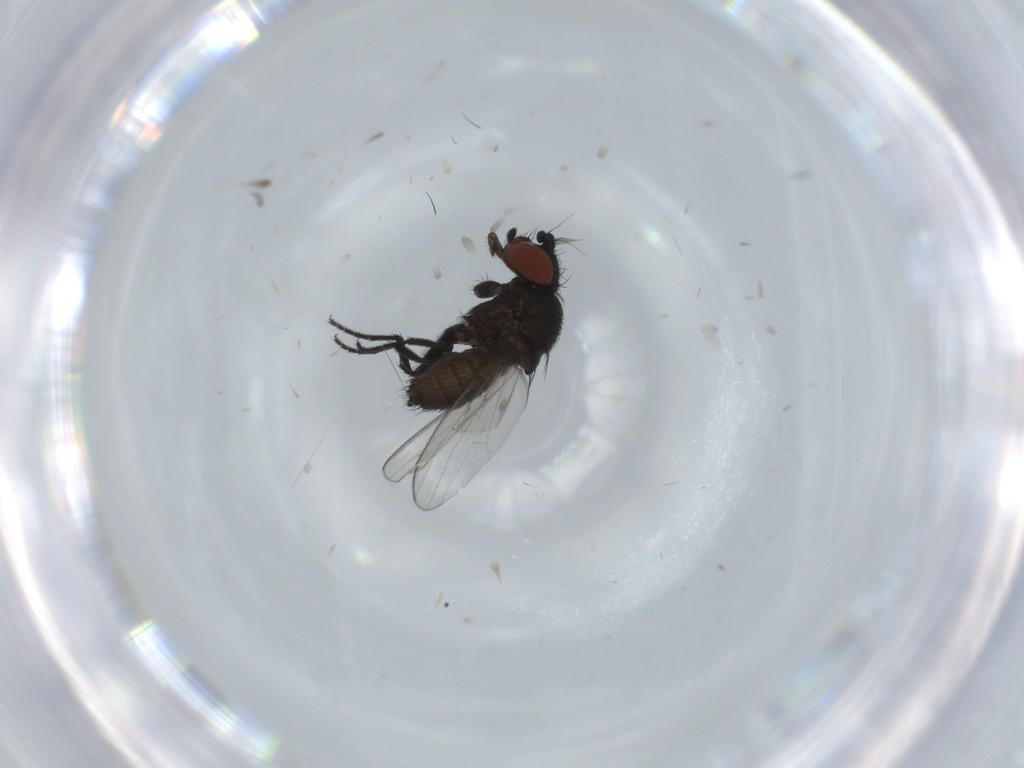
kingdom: Animalia
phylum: Arthropoda
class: Insecta
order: Diptera
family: Milichiidae
